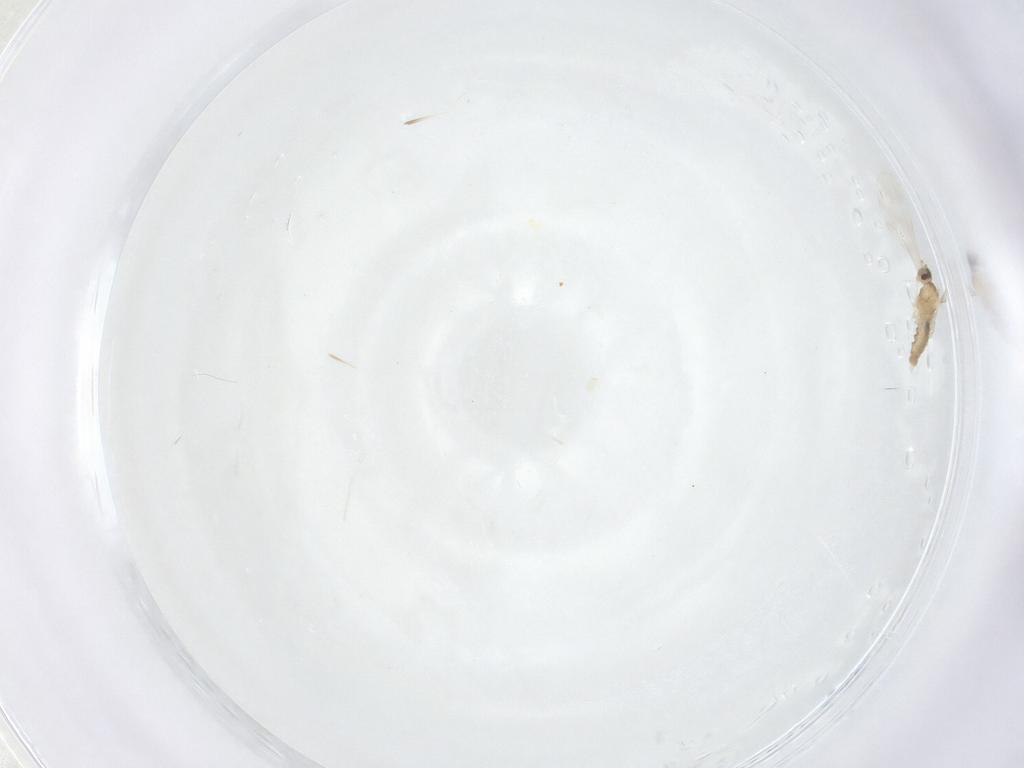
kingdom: Animalia
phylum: Arthropoda
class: Insecta
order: Diptera
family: Cecidomyiidae
